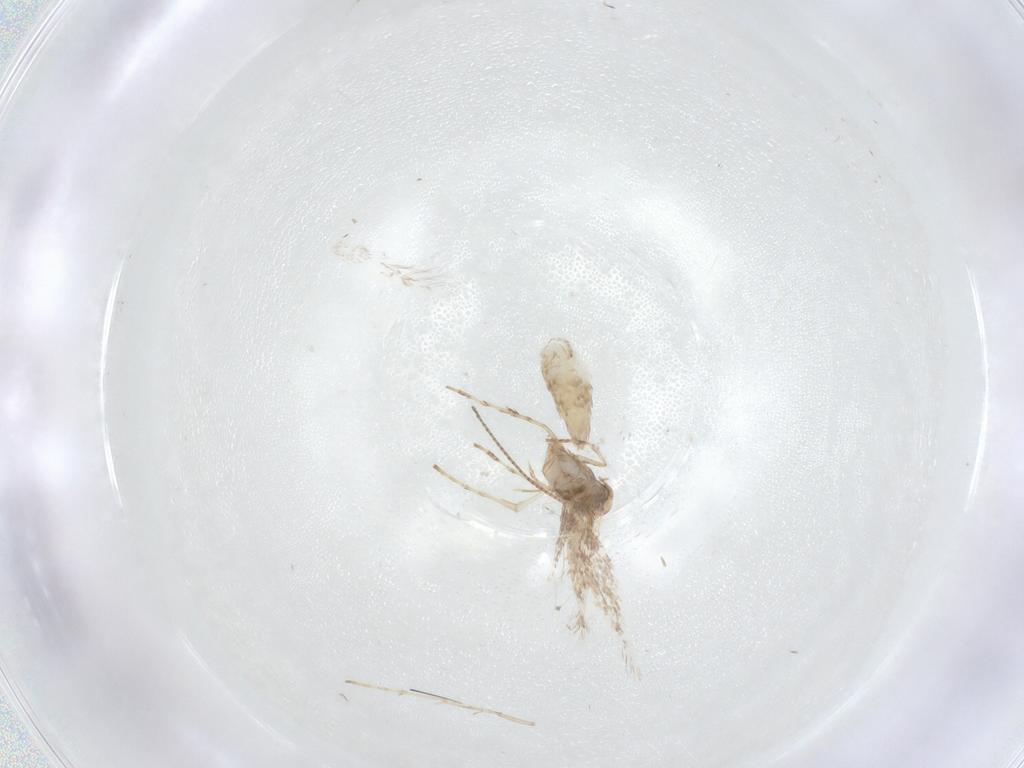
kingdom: Animalia
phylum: Arthropoda
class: Insecta
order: Lepidoptera
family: Gracillariidae
